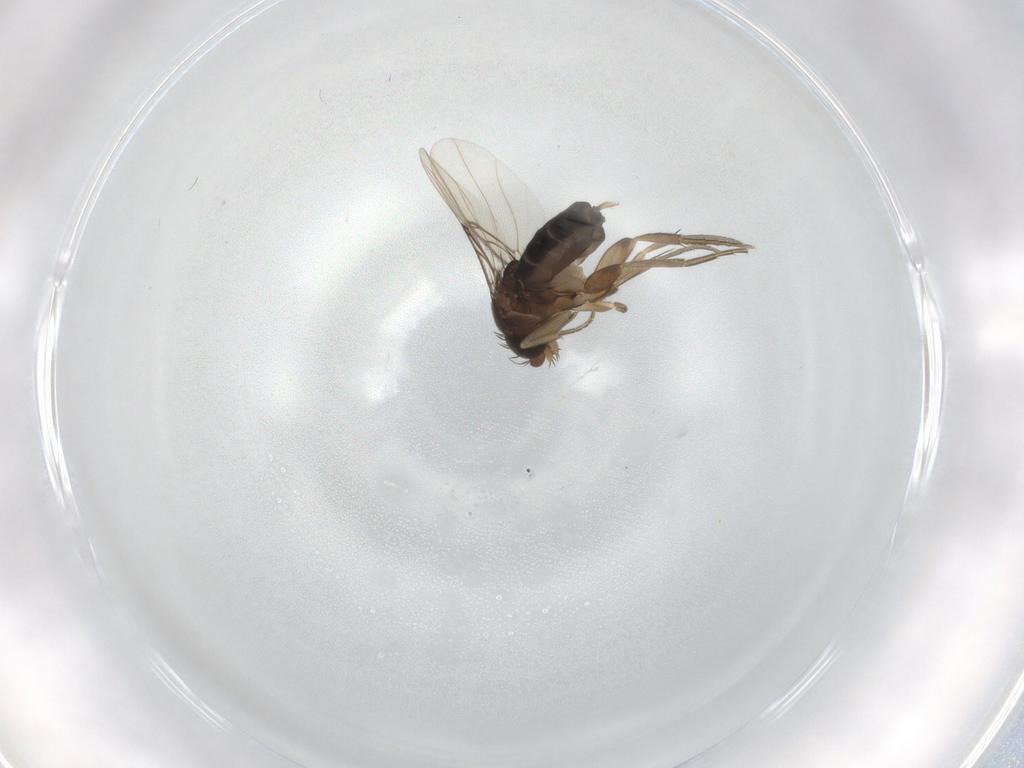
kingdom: Animalia
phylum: Arthropoda
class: Insecta
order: Diptera
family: Phoridae
